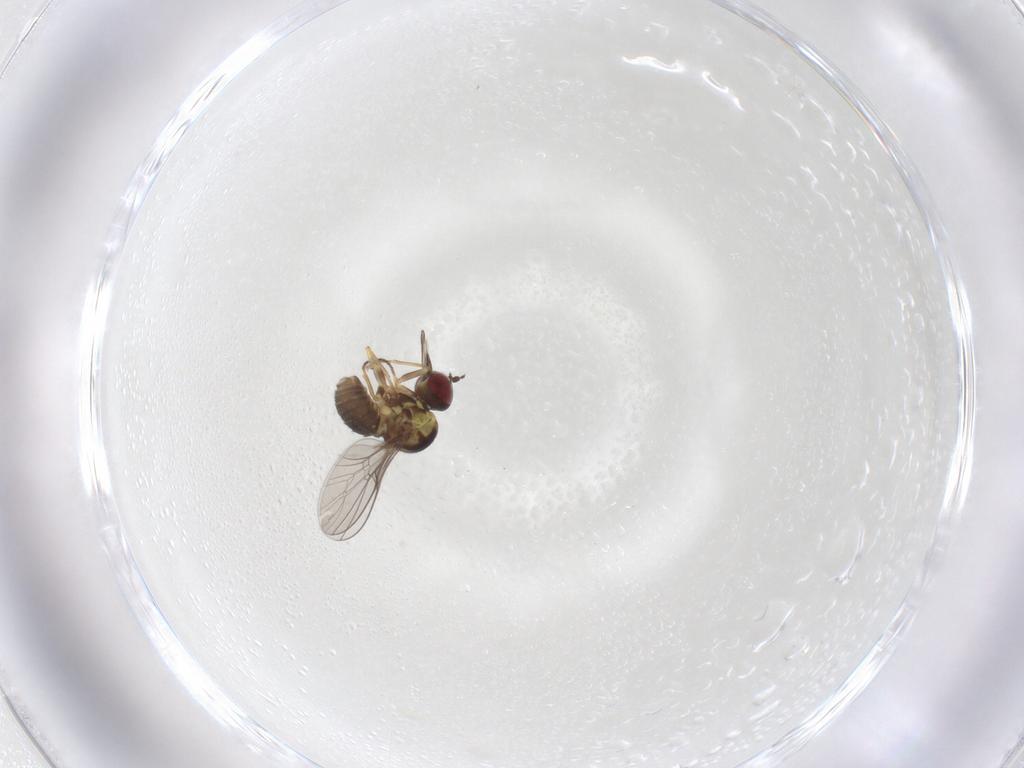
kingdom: Animalia
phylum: Arthropoda
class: Insecta
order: Diptera
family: Bombyliidae
